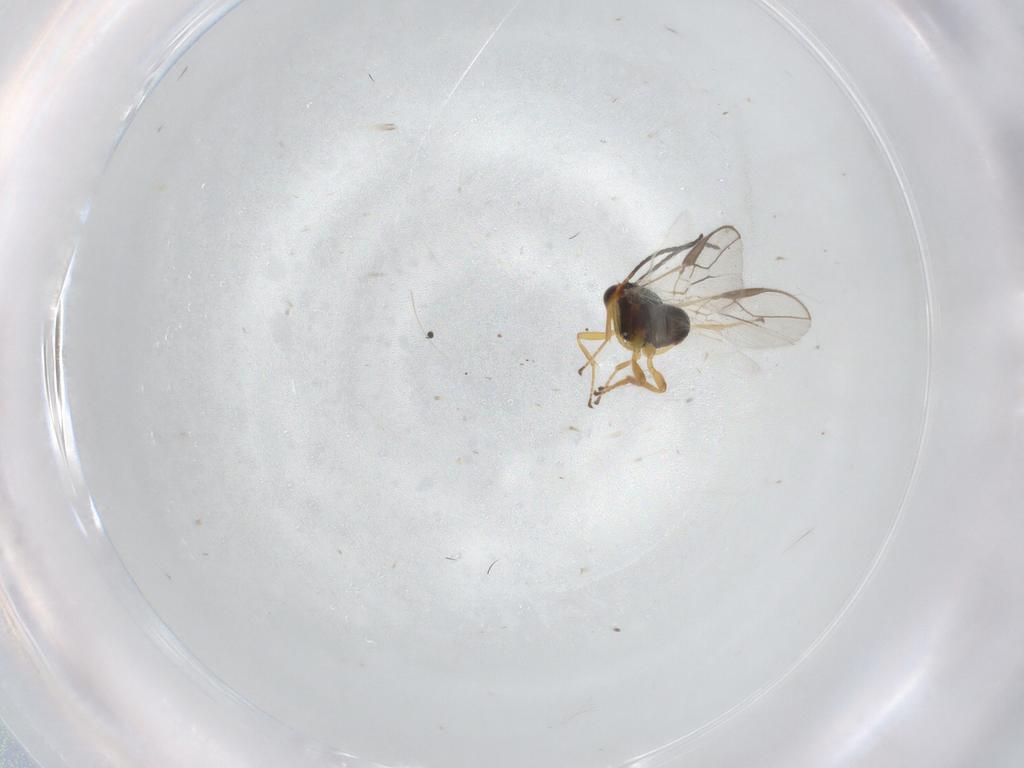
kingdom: Animalia
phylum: Arthropoda
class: Insecta
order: Hymenoptera
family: Braconidae
